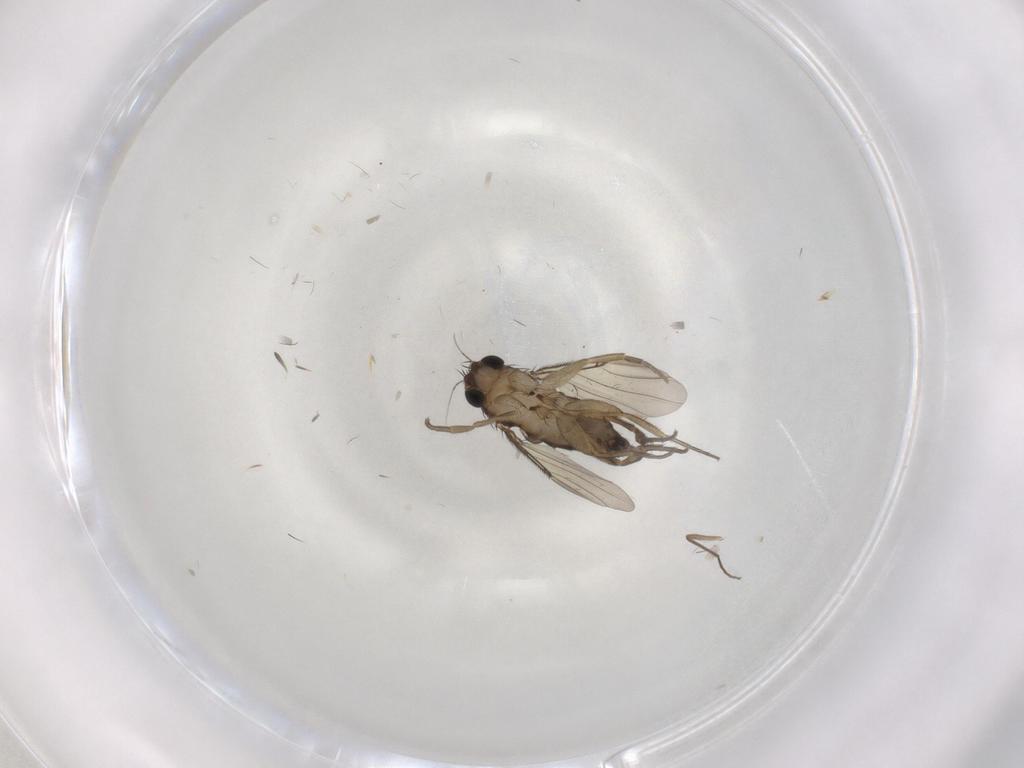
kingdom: Animalia
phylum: Arthropoda
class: Insecta
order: Diptera
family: Phoridae
